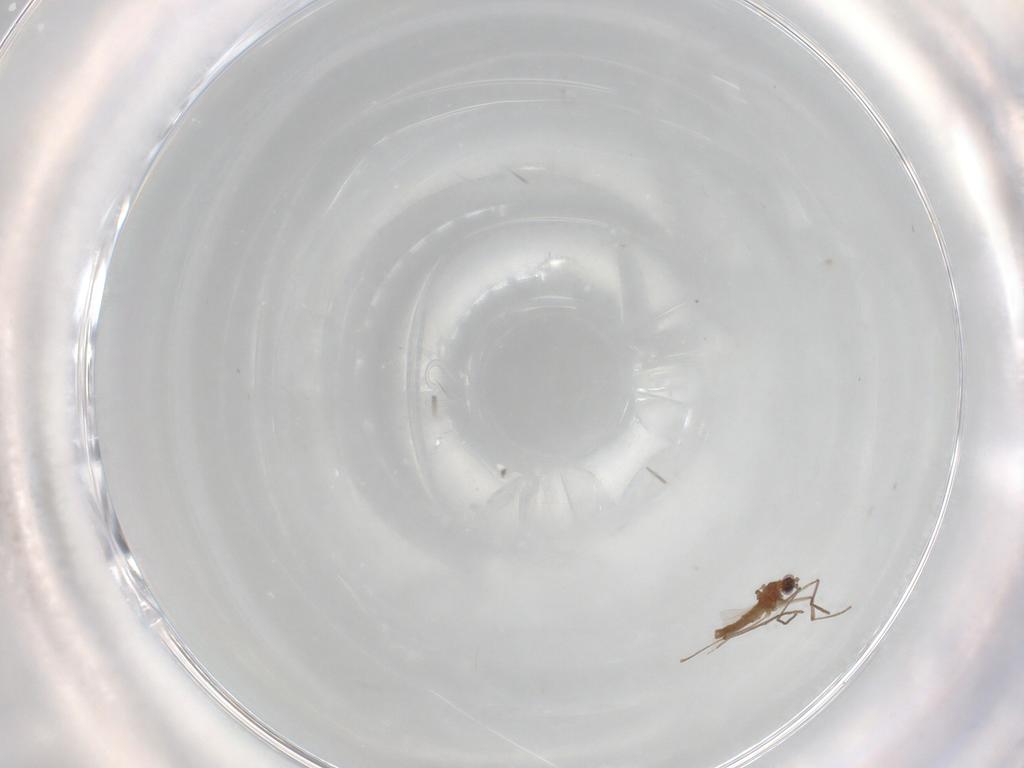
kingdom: Animalia
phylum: Arthropoda
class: Insecta
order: Diptera
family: Cecidomyiidae
